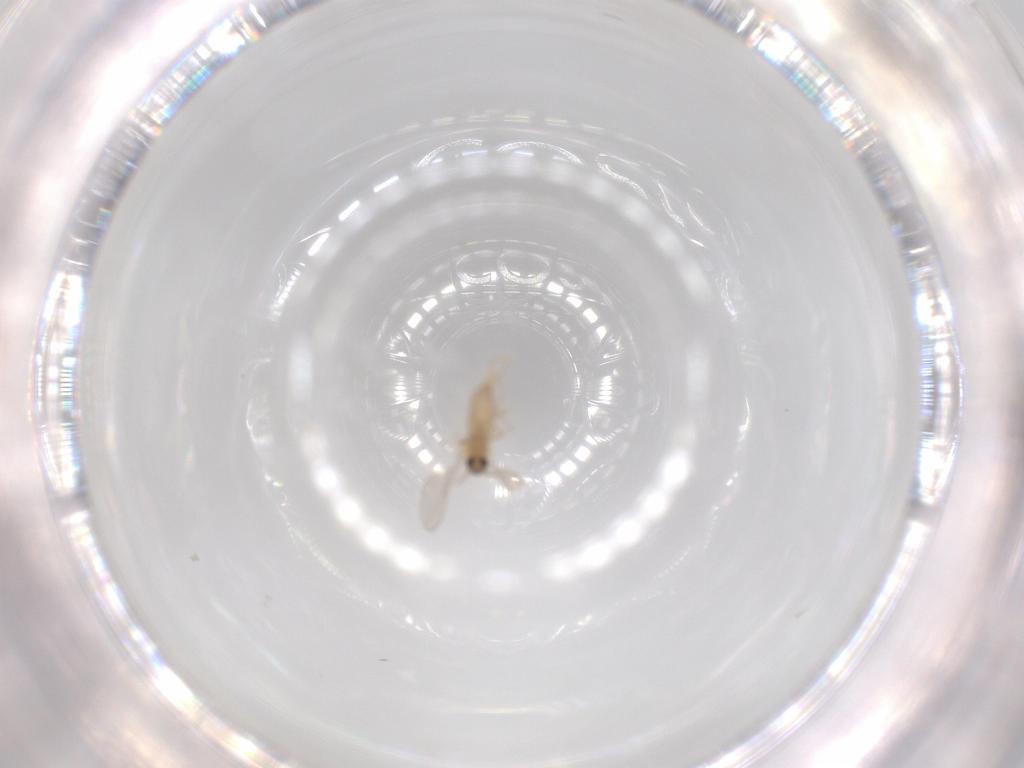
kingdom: Animalia
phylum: Arthropoda
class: Insecta
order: Diptera
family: Cecidomyiidae
